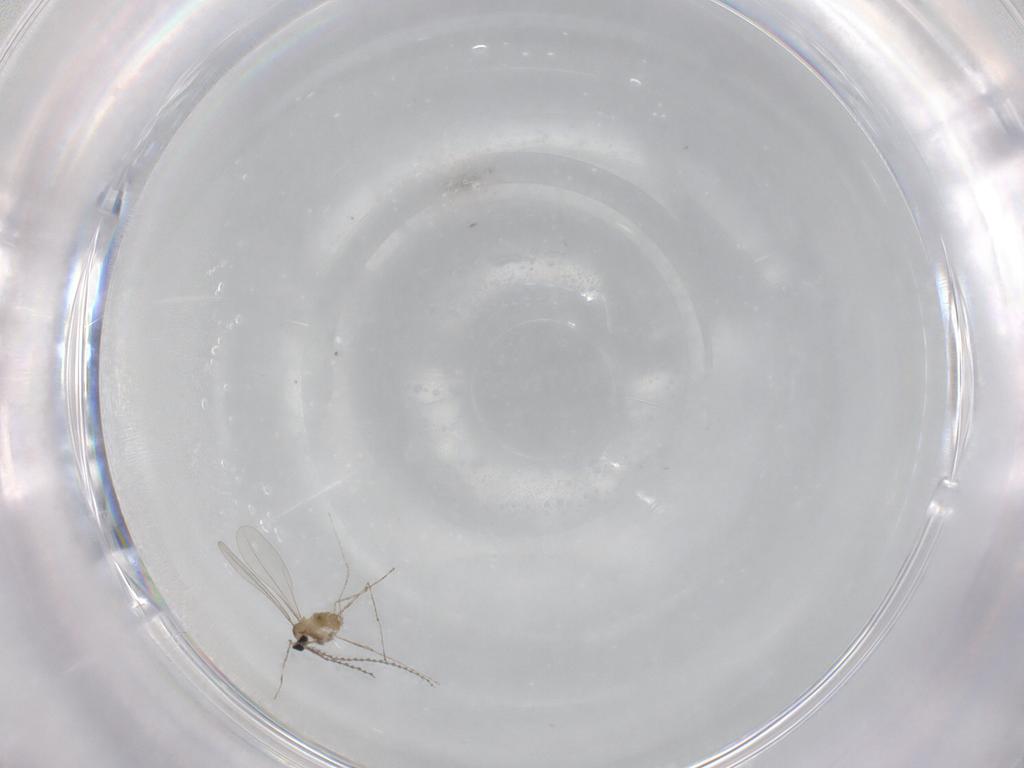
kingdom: Animalia
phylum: Arthropoda
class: Insecta
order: Diptera
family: Cecidomyiidae
